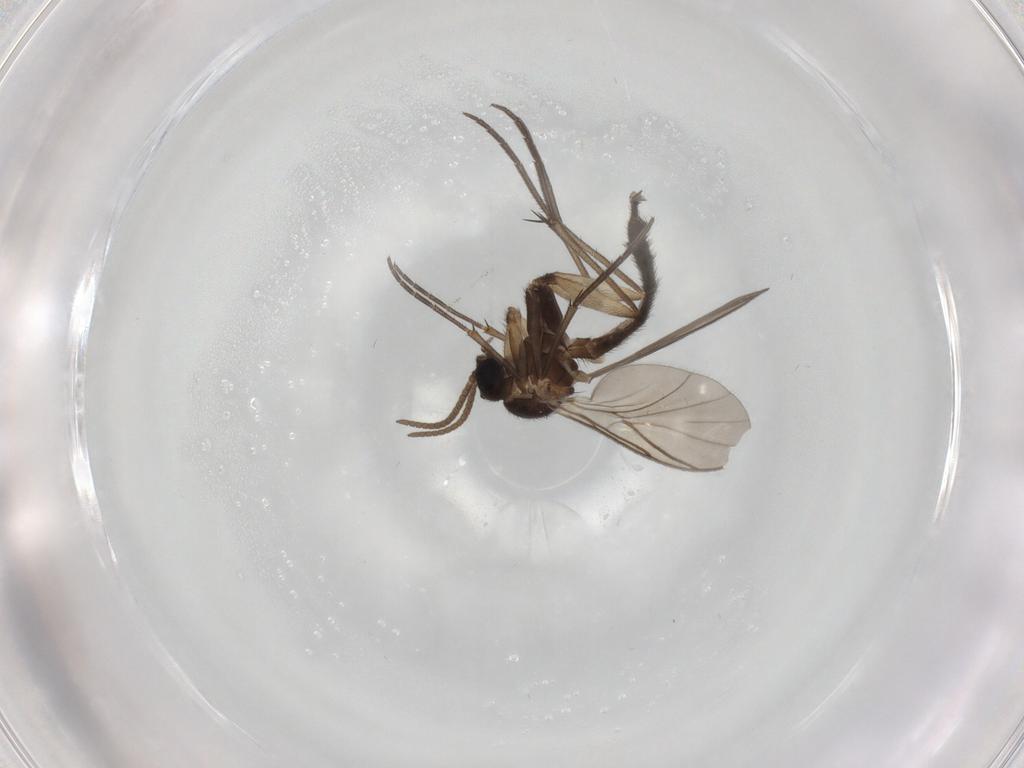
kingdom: Animalia
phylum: Arthropoda
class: Insecta
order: Diptera
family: Keroplatidae
